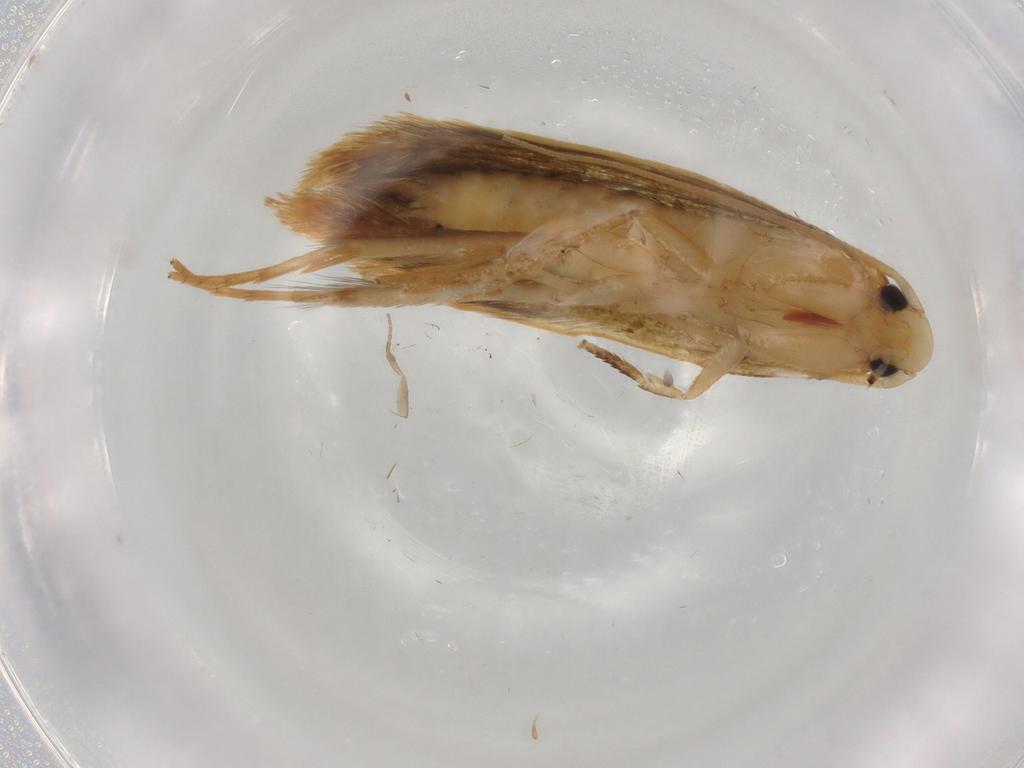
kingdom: Animalia
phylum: Arthropoda
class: Insecta
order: Lepidoptera
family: Tineidae
